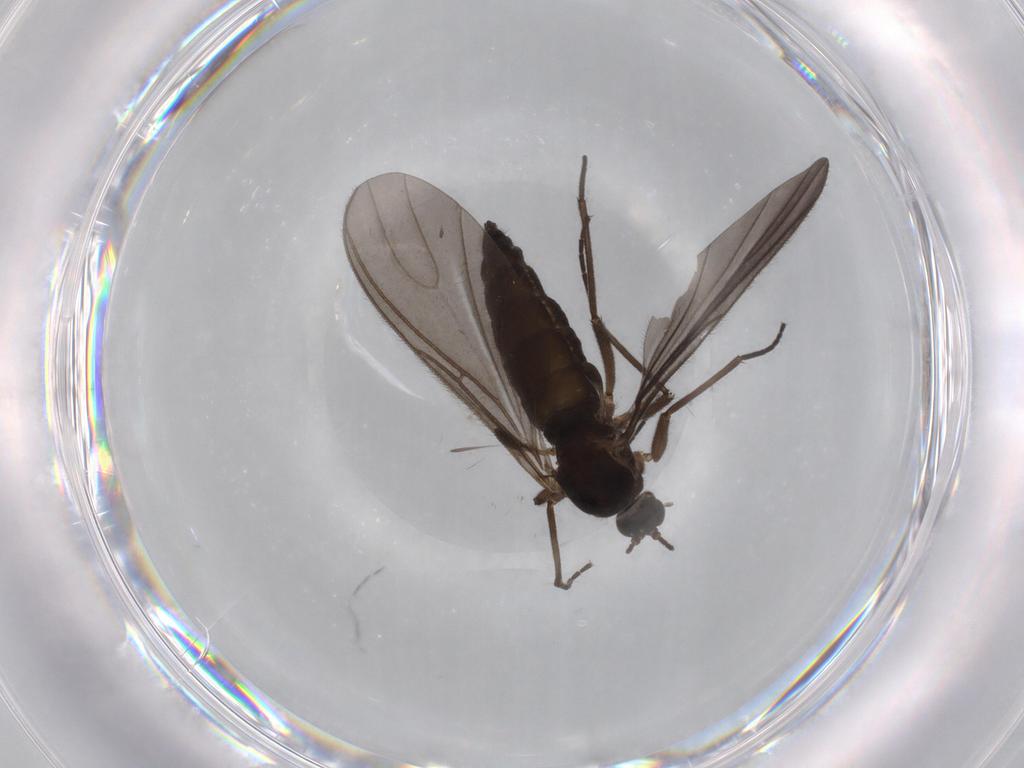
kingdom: Animalia
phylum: Arthropoda
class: Insecta
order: Diptera
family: Sciaridae
